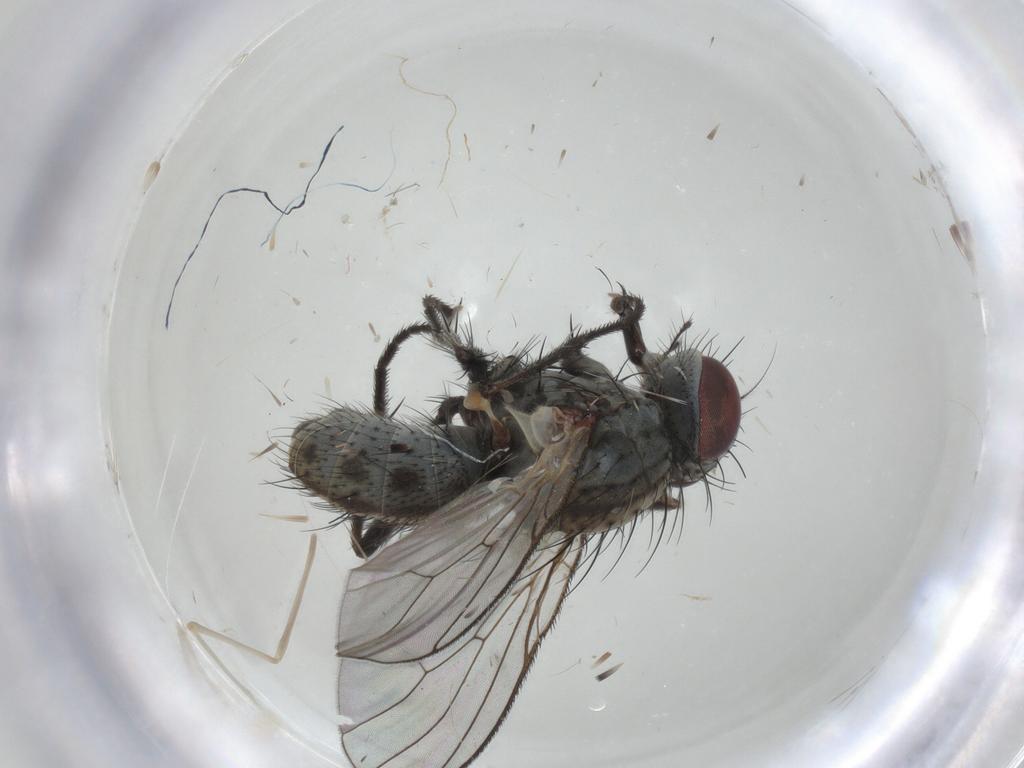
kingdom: Animalia
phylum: Arthropoda
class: Insecta
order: Diptera
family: Muscidae
